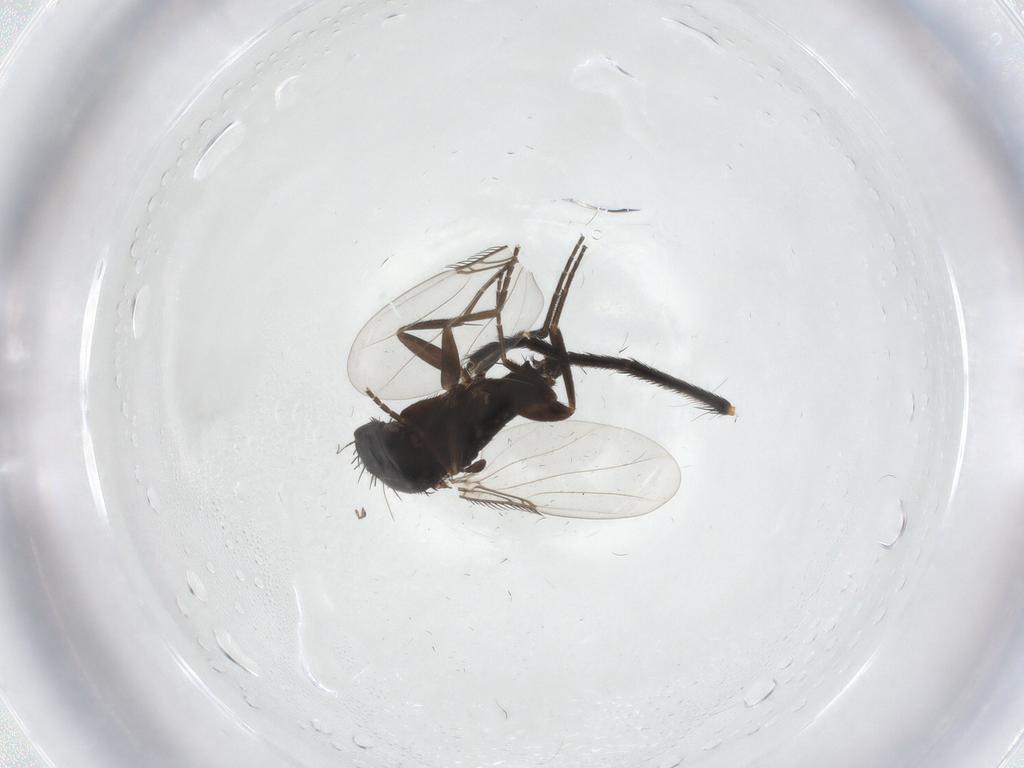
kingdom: Animalia
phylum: Arthropoda
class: Insecta
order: Diptera
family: Phoridae
